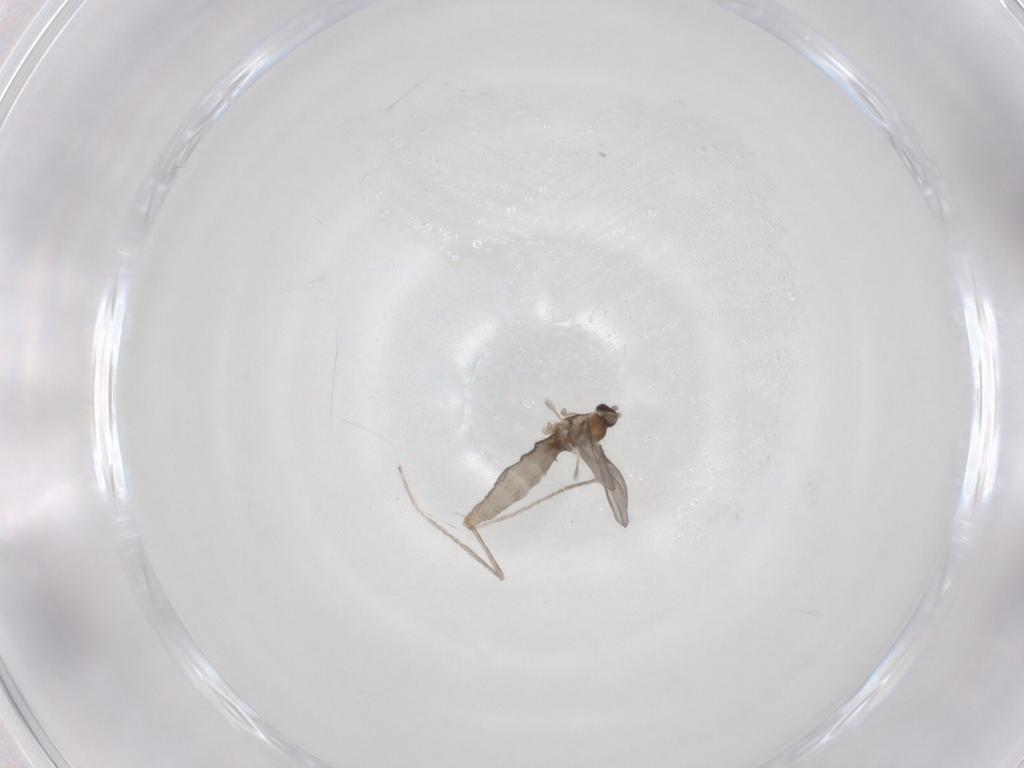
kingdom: Animalia
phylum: Arthropoda
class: Insecta
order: Diptera
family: Cecidomyiidae
